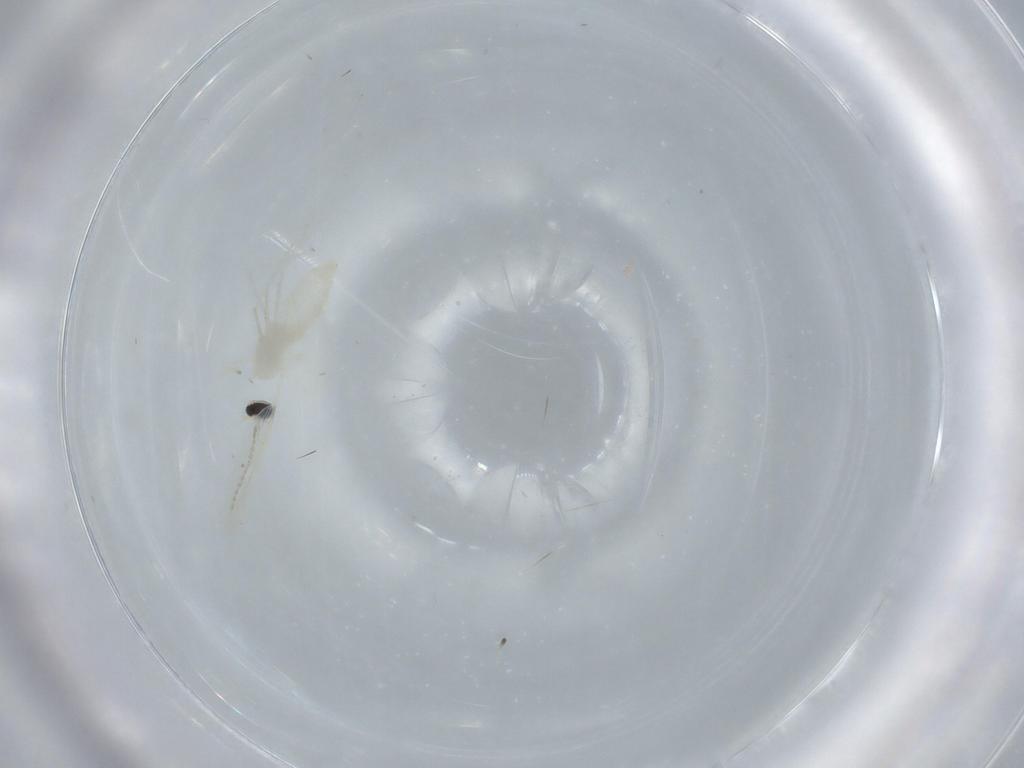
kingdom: Animalia
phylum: Arthropoda
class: Insecta
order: Diptera
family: Cecidomyiidae
